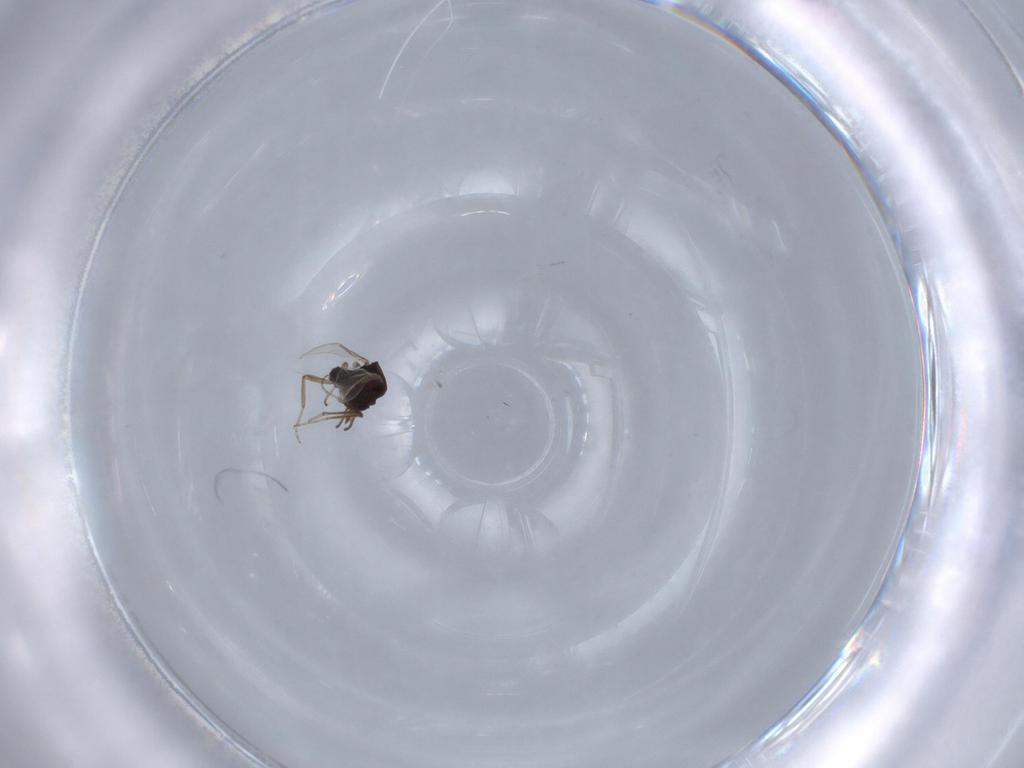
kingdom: Animalia
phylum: Arthropoda
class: Insecta
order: Diptera
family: Ceratopogonidae
